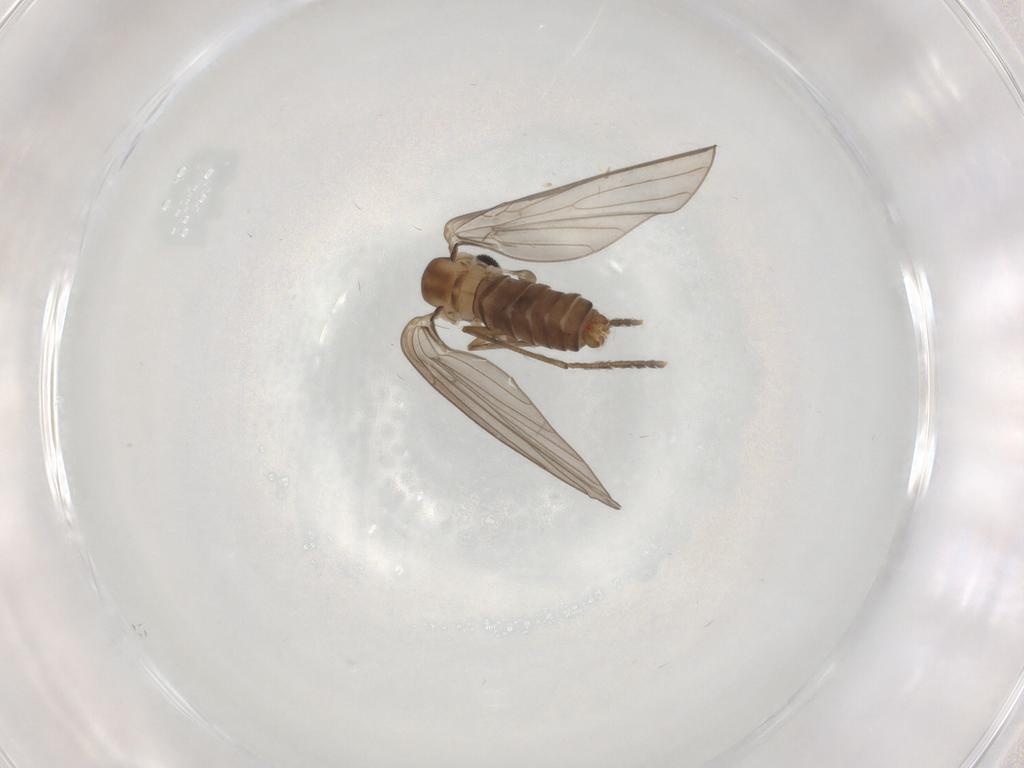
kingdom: Animalia
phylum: Arthropoda
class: Insecta
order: Diptera
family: Psychodidae
